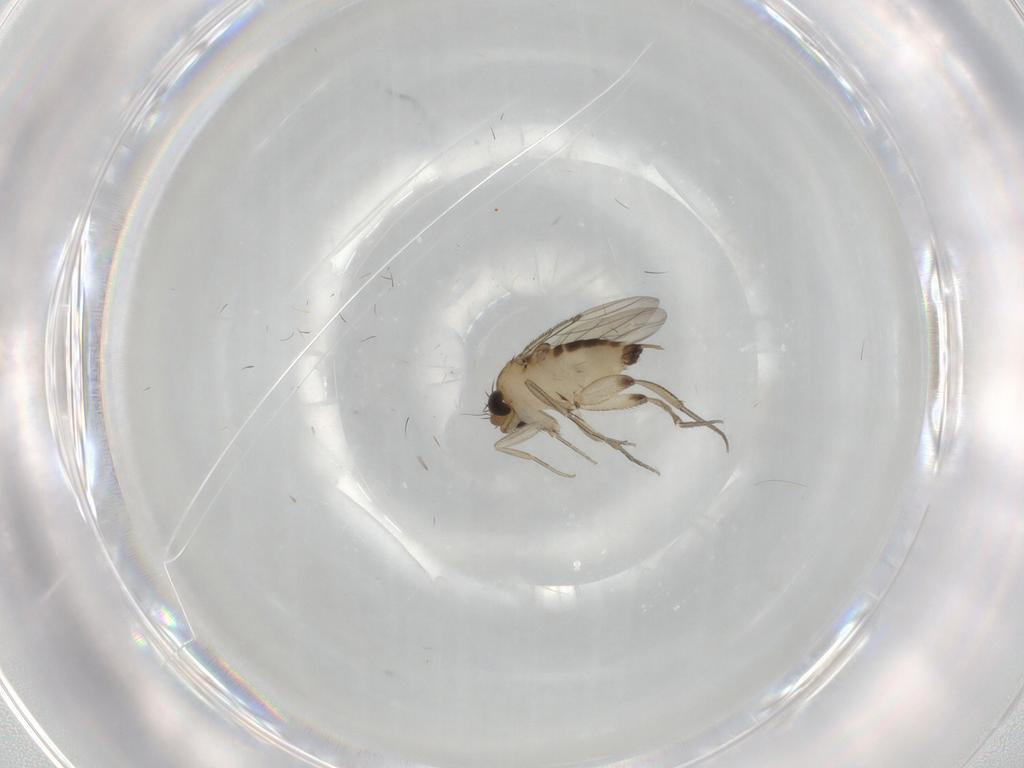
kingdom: Animalia
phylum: Arthropoda
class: Insecta
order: Diptera
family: Phoridae
